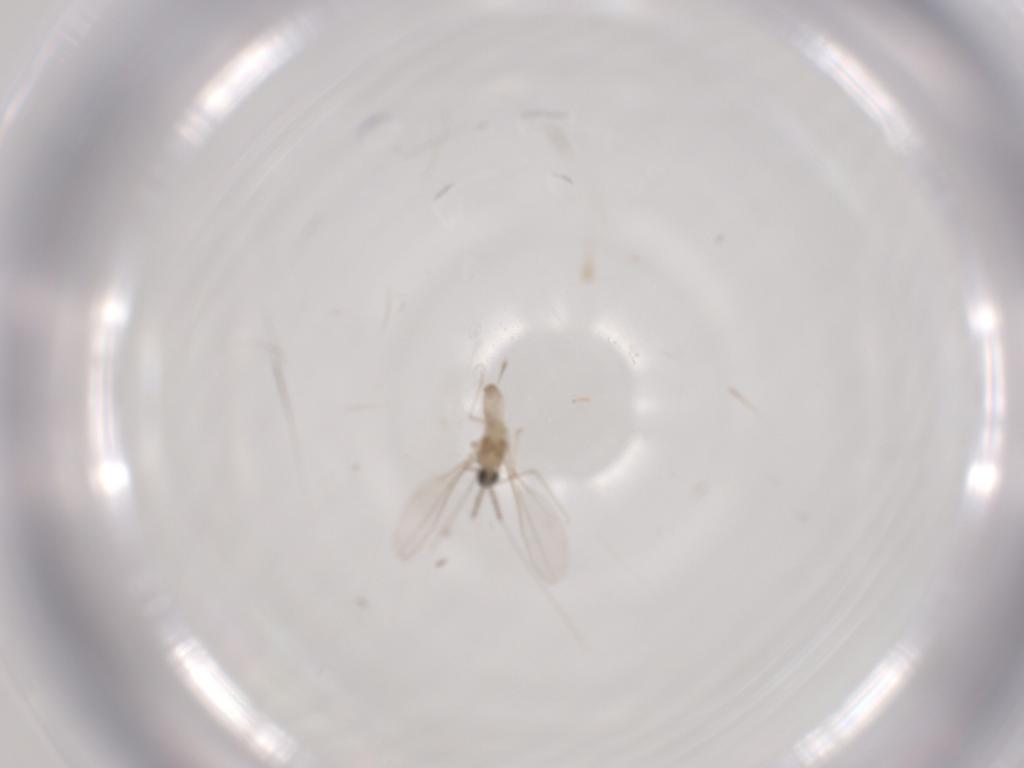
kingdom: Animalia
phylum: Arthropoda
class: Insecta
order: Diptera
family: Cecidomyiidae
